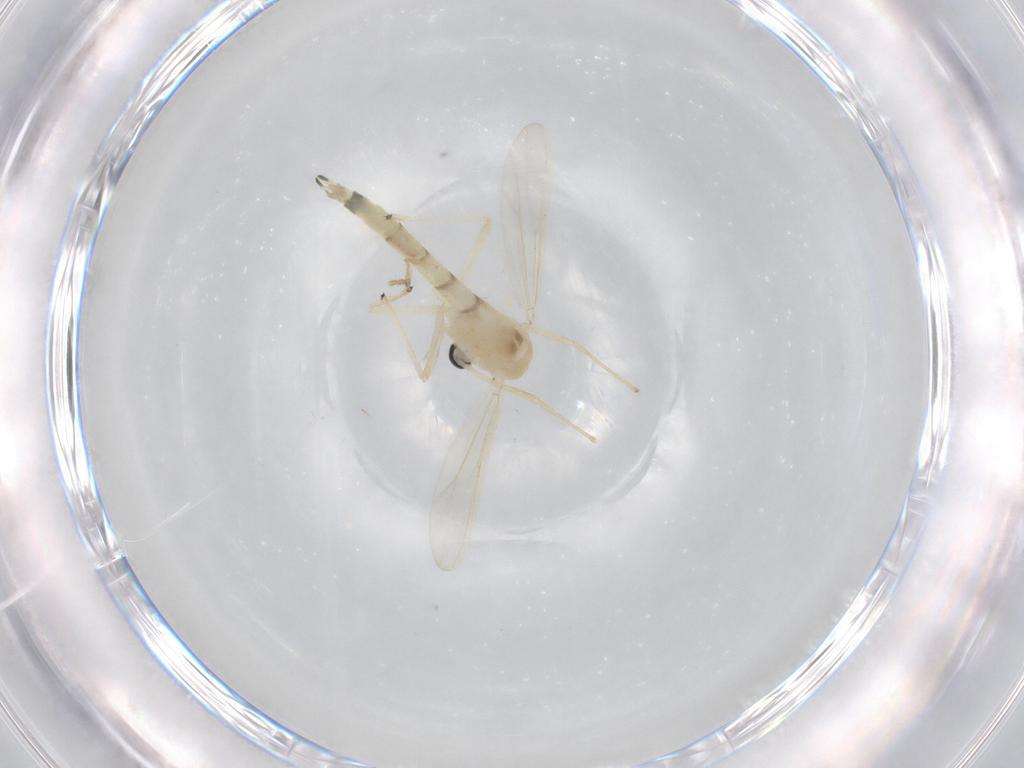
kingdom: Animalia
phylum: Arthropoda
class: Insecta
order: Diptera
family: Chironomidae
